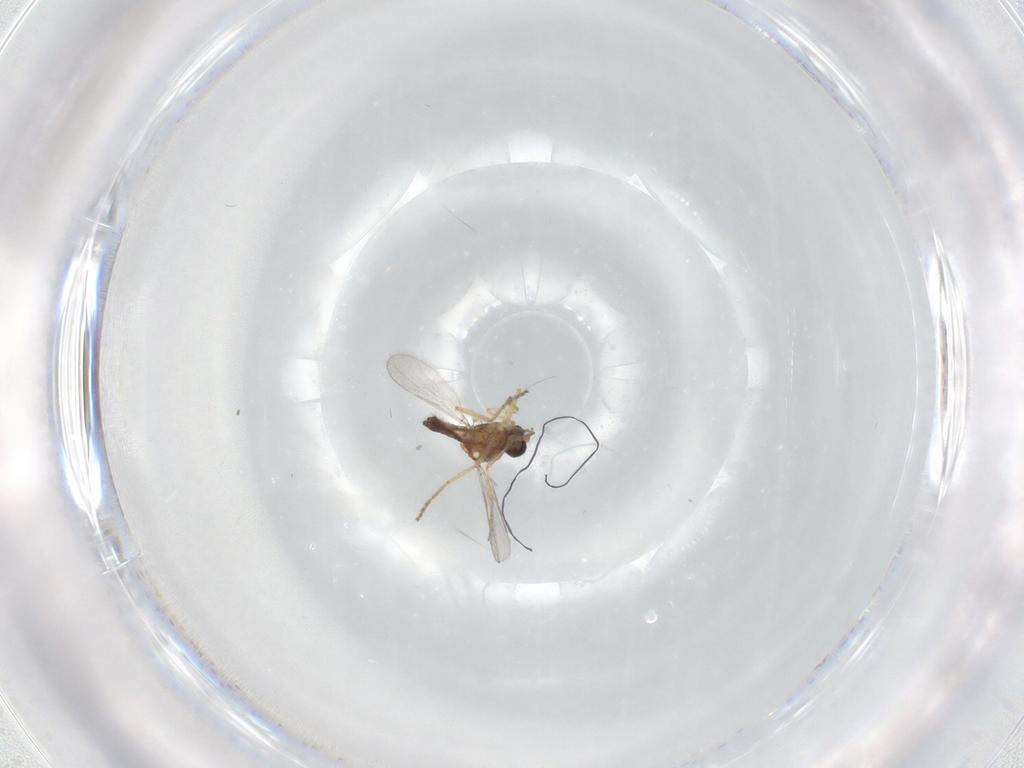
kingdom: Animalia
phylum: Arthropoda
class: Insecta
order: Diptera
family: Ceratopogonidae
